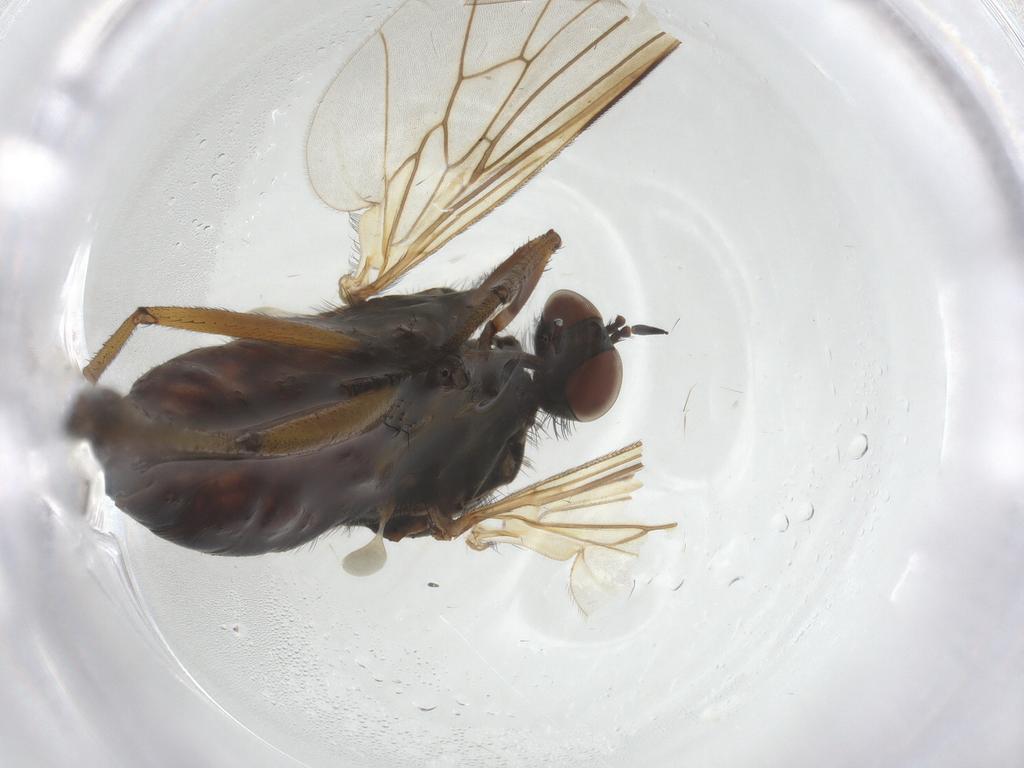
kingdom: Animalia
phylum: Arthropoda
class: Insecta
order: Diptera
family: Empididae
